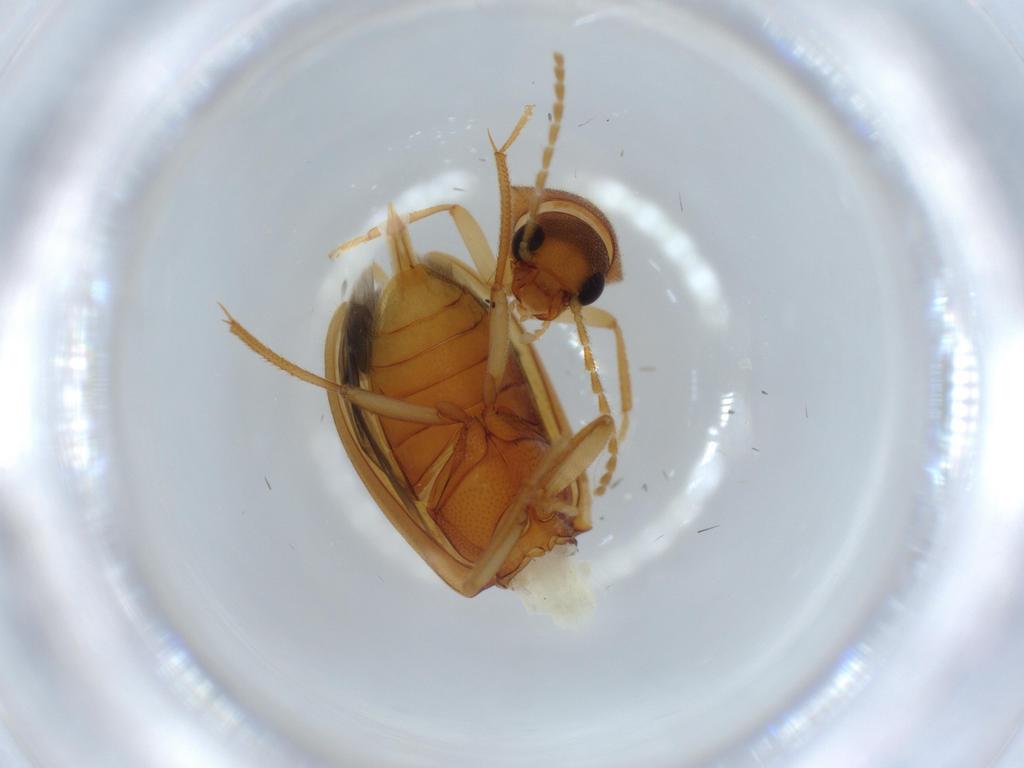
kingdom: Animalia
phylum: Arthropoda
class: Insecta
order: Coleoptera
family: Ptilodactylidae
